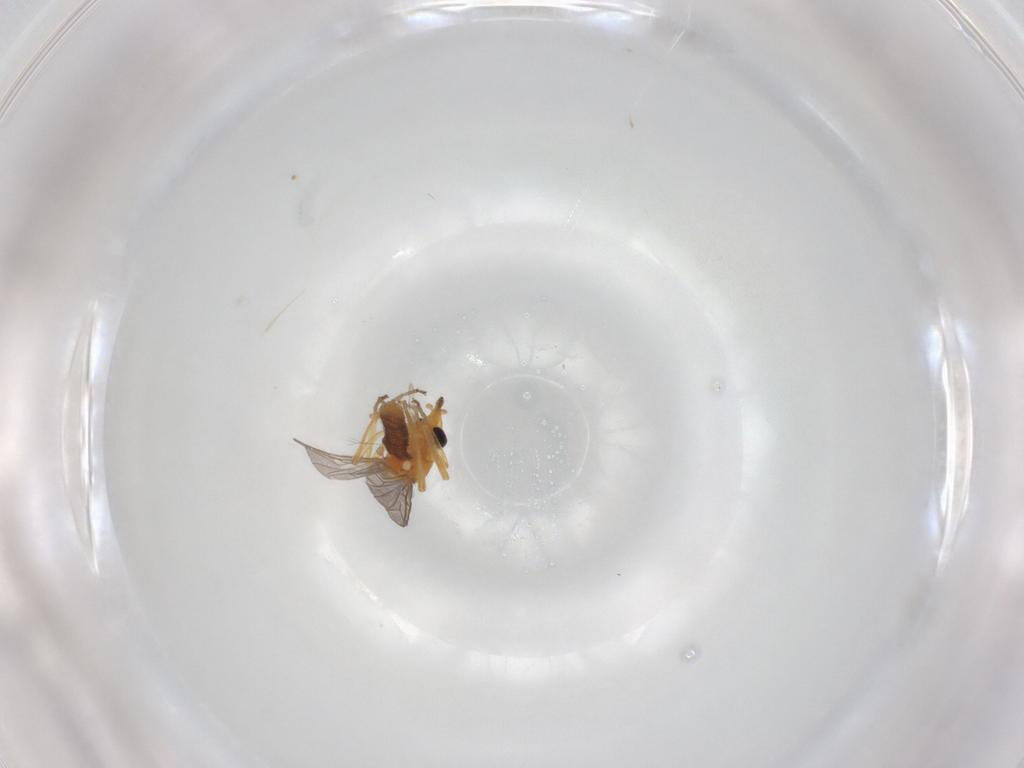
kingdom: Animalia
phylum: Arthropoda
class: Insecta
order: Diptera
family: Ceratopogonidae
